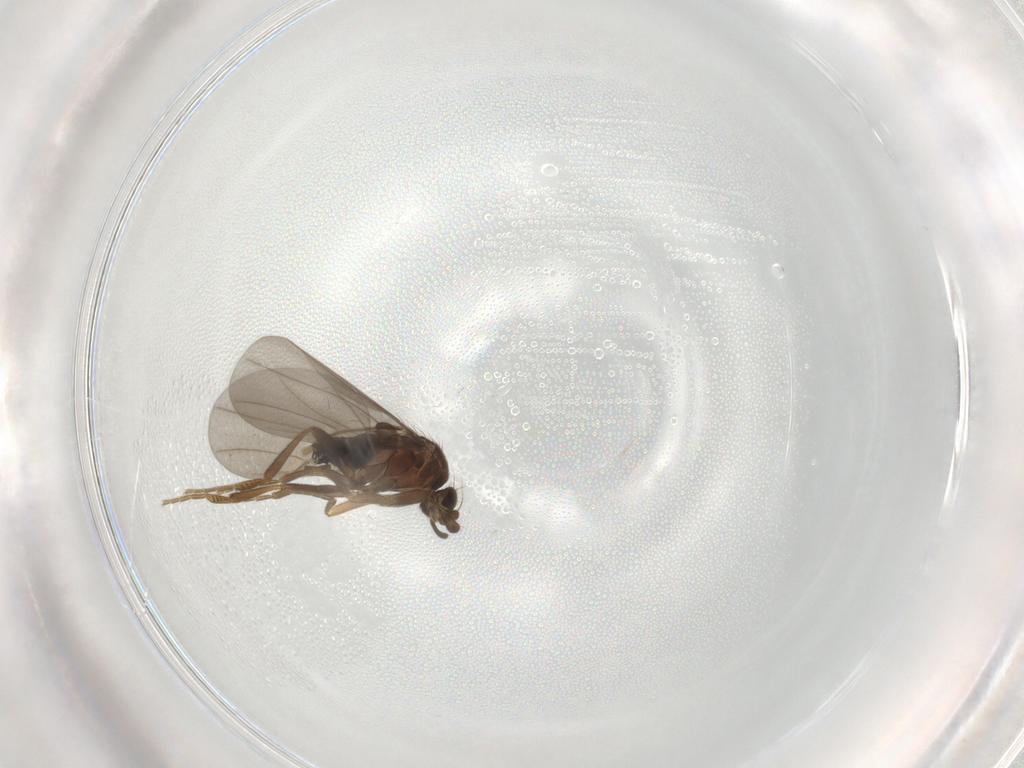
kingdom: Animalia
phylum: Arthropoda
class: Insecta
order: Diptera
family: Sciaridae
